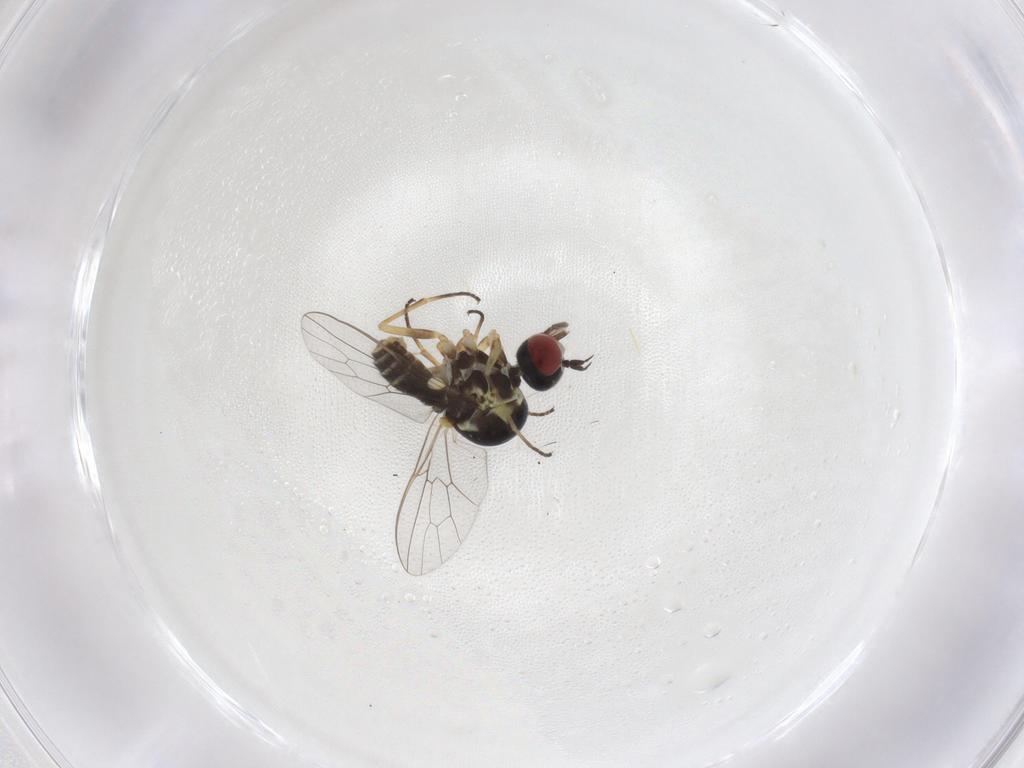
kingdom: Animalia
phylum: Arthropoda
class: Insecta
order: Diptera
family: Bombyliidae
